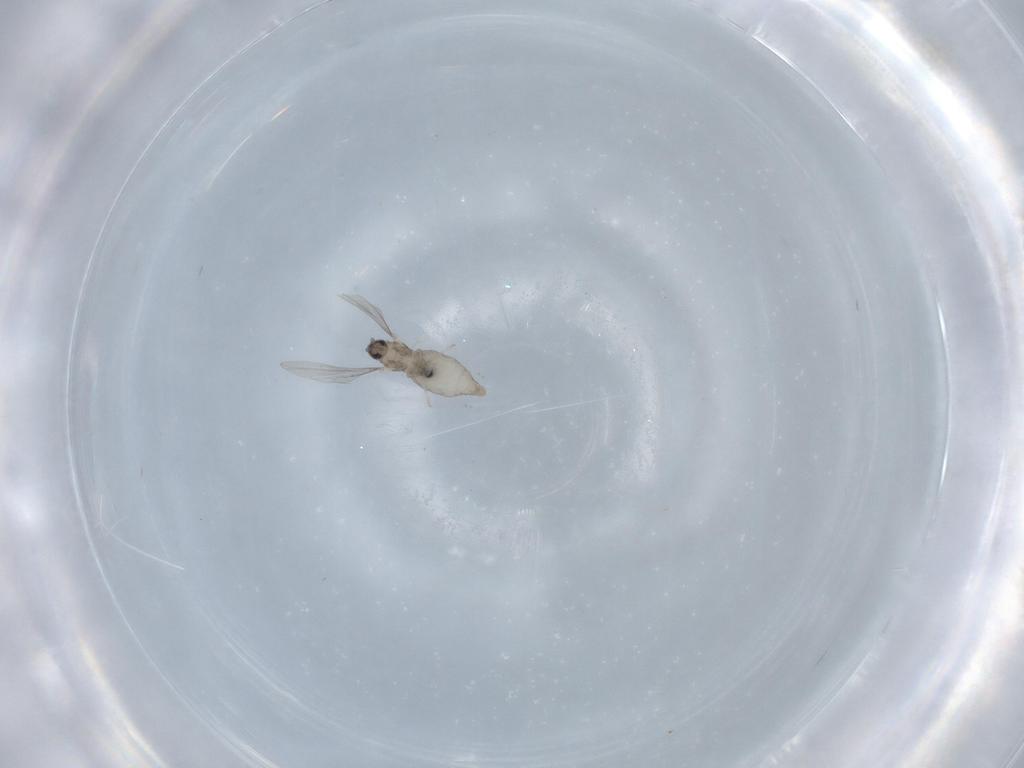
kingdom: Animalia
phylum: Arthropoda
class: Insecta
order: Diptera
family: Cecidomyiidae
